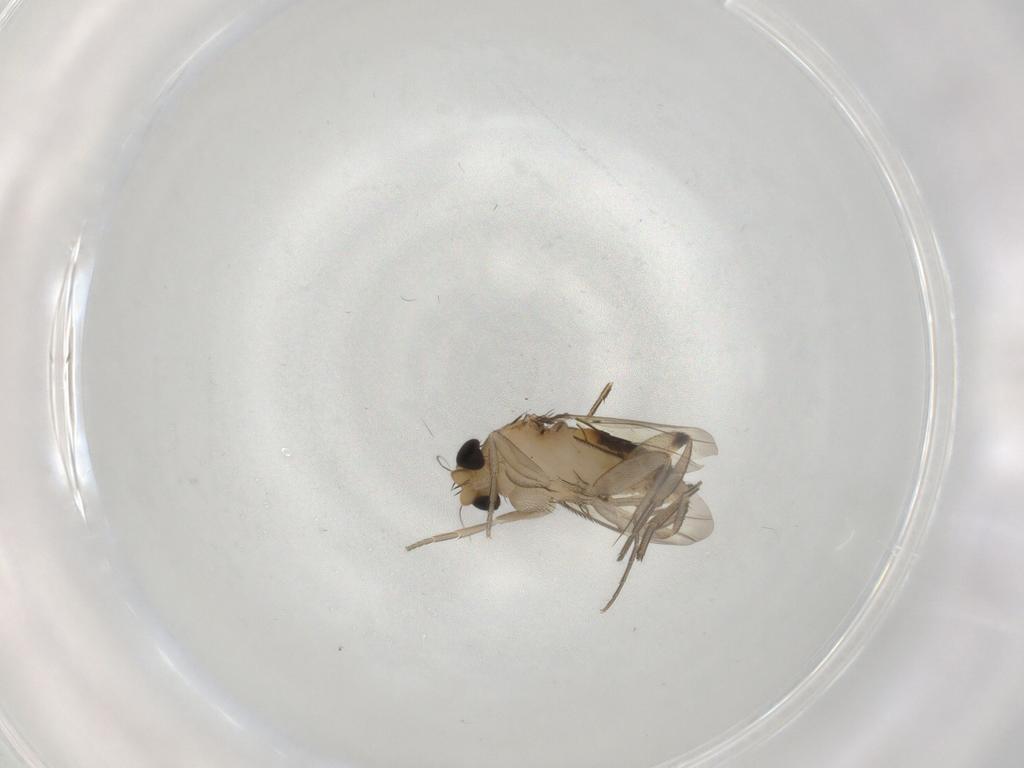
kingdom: Animalia
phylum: Arthropoda
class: Insecta
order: Diptera
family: Phoridae
